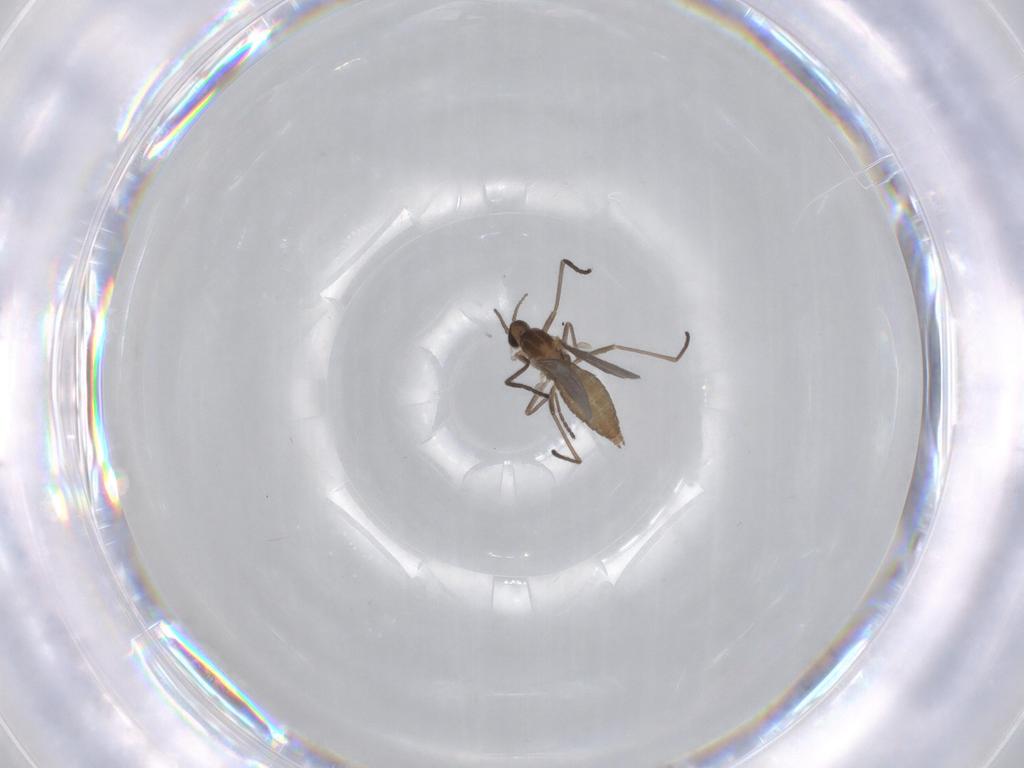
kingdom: Animalia
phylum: Arthropoda
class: Insecta
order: Diptera
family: Cecidomyiidae
